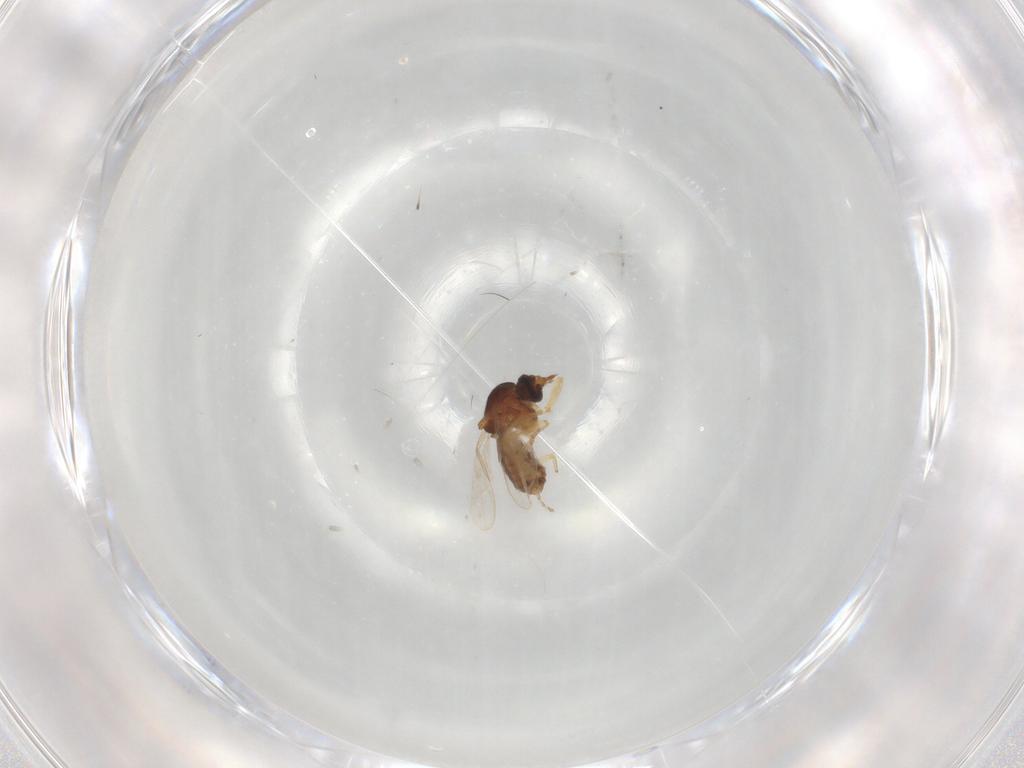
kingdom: Animalia
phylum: Arthropoda
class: Insecta
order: Diptera
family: Ceratopogonidae
